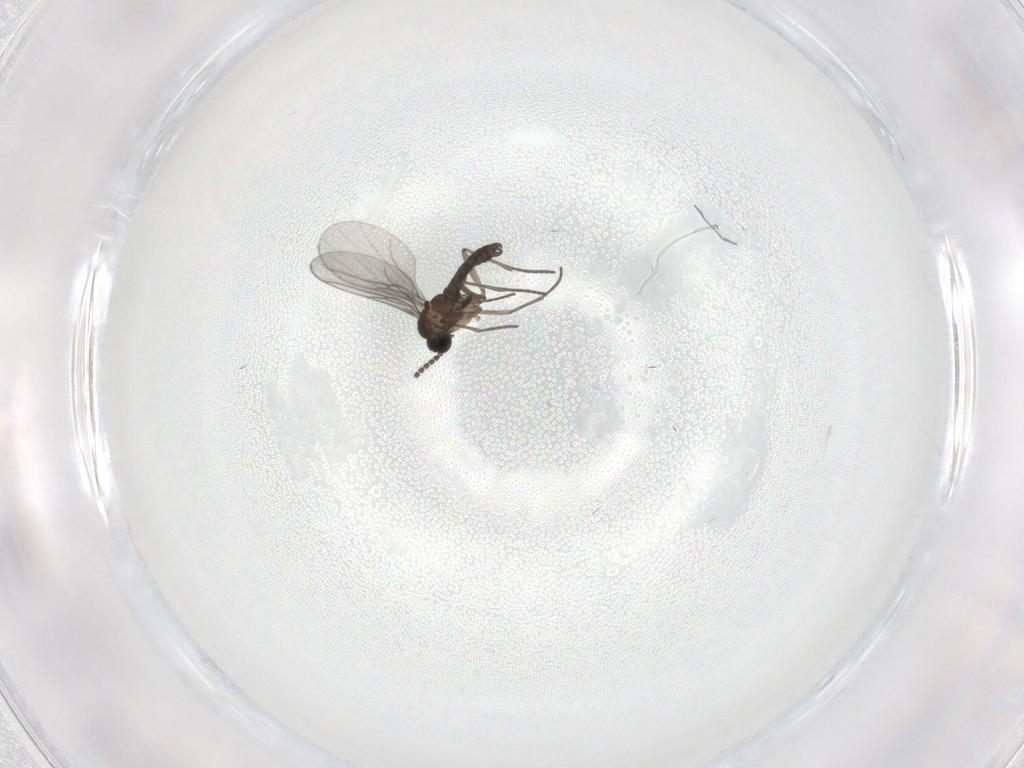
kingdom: Animalia
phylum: Arthropoda
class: Insecta
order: Diptera
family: Sciaridae
